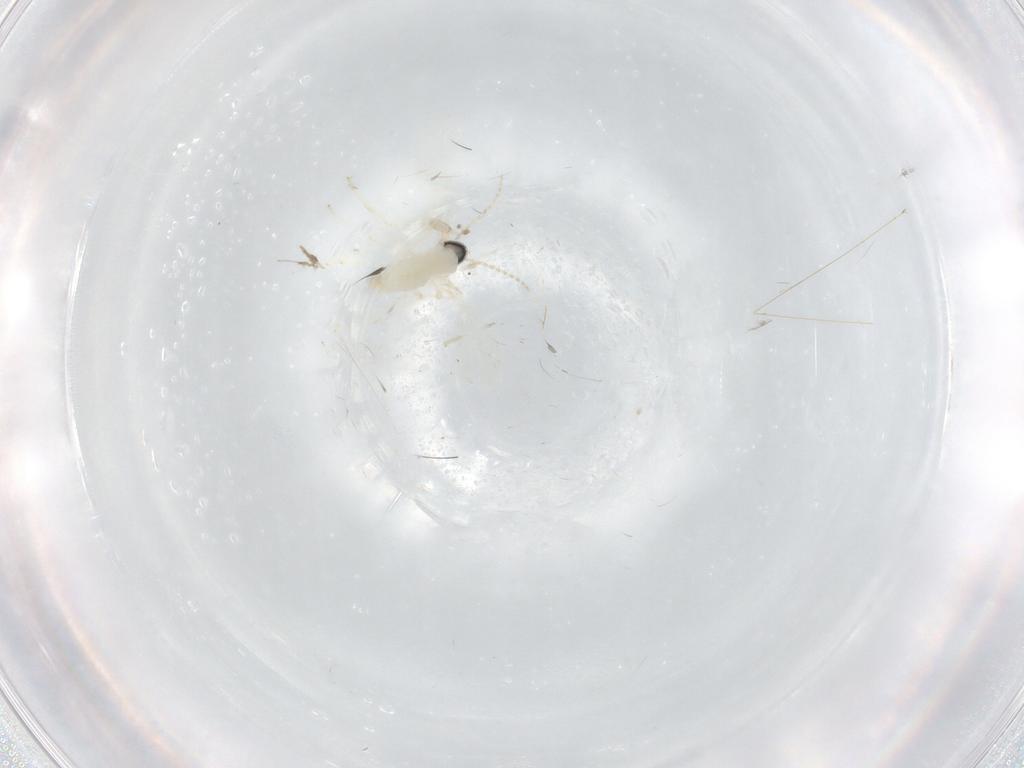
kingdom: Animalia
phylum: Arthropoda
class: Insecta
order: Diptera
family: Cecidomyiidae
